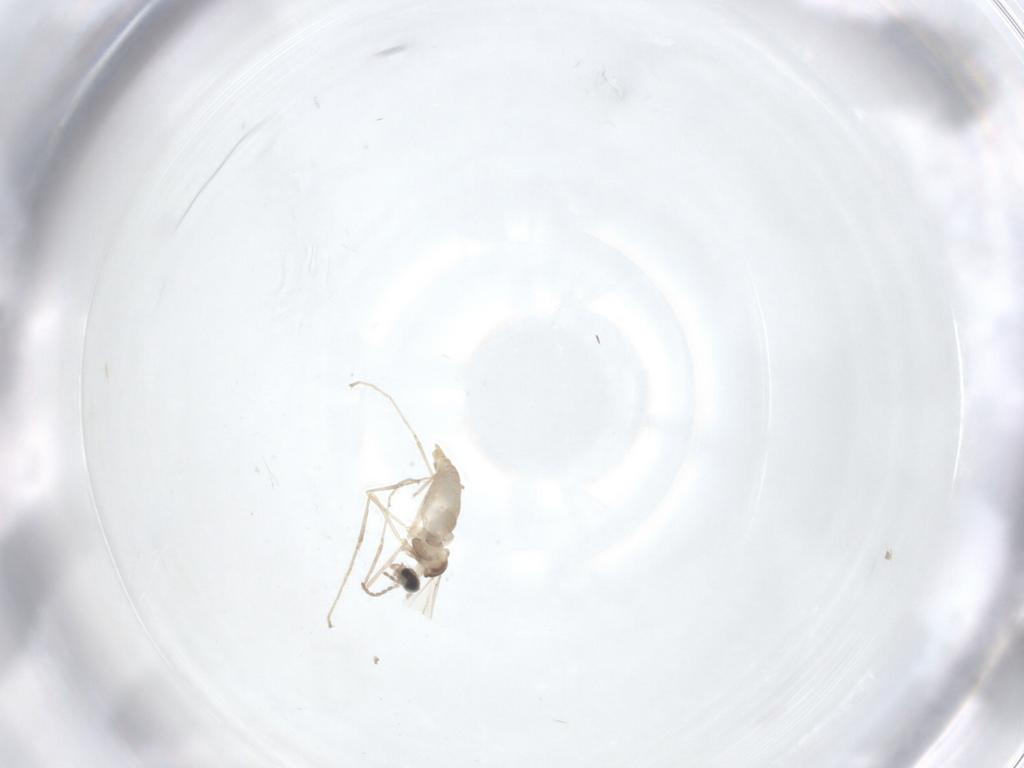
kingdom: Animalia
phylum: Arthropoda
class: Insecta
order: Diptera
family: Cecidomyiidae
